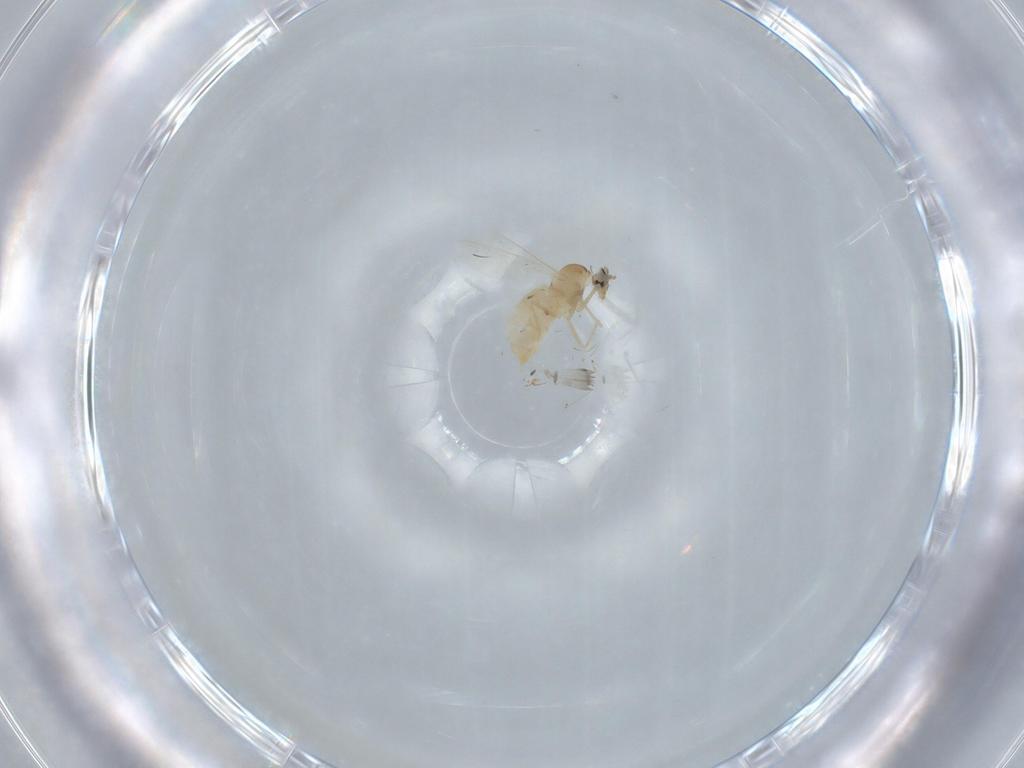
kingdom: Animalia
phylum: Arthropoda
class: Insecta
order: Diptera
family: Cecidomyiidae
